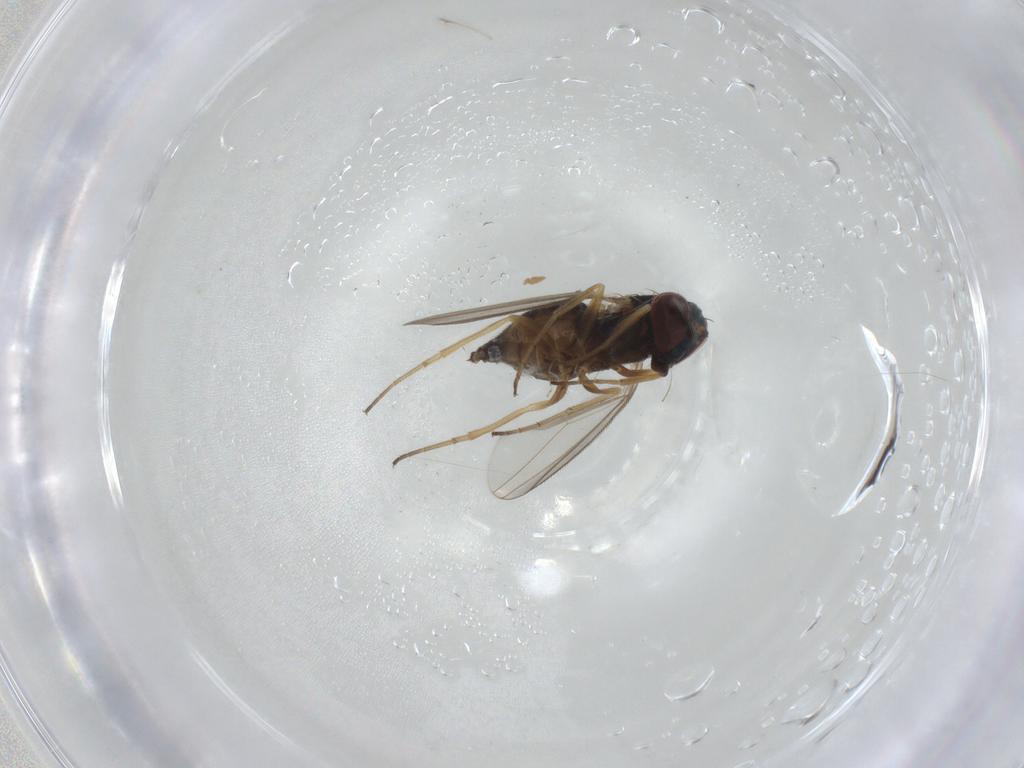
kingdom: Animalia
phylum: Arthropoda
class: Insecta
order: Diptera
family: Dolichopodidae
